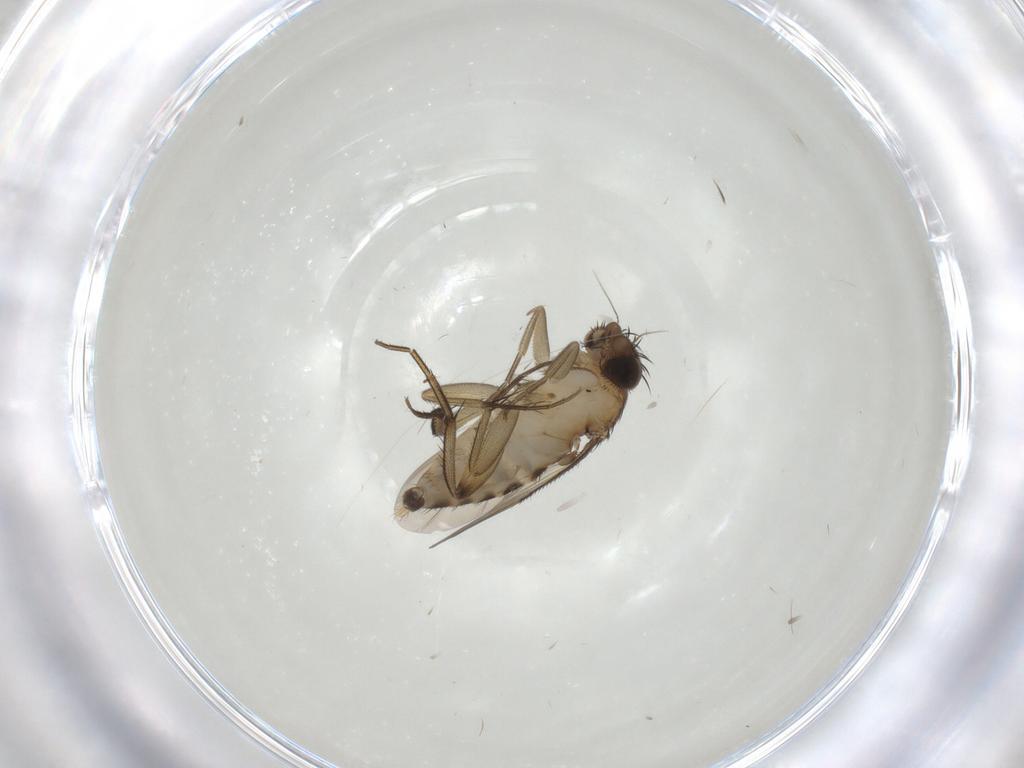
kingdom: Animalia
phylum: Arthropoda
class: Insecta
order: Diptera
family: Phoridae
